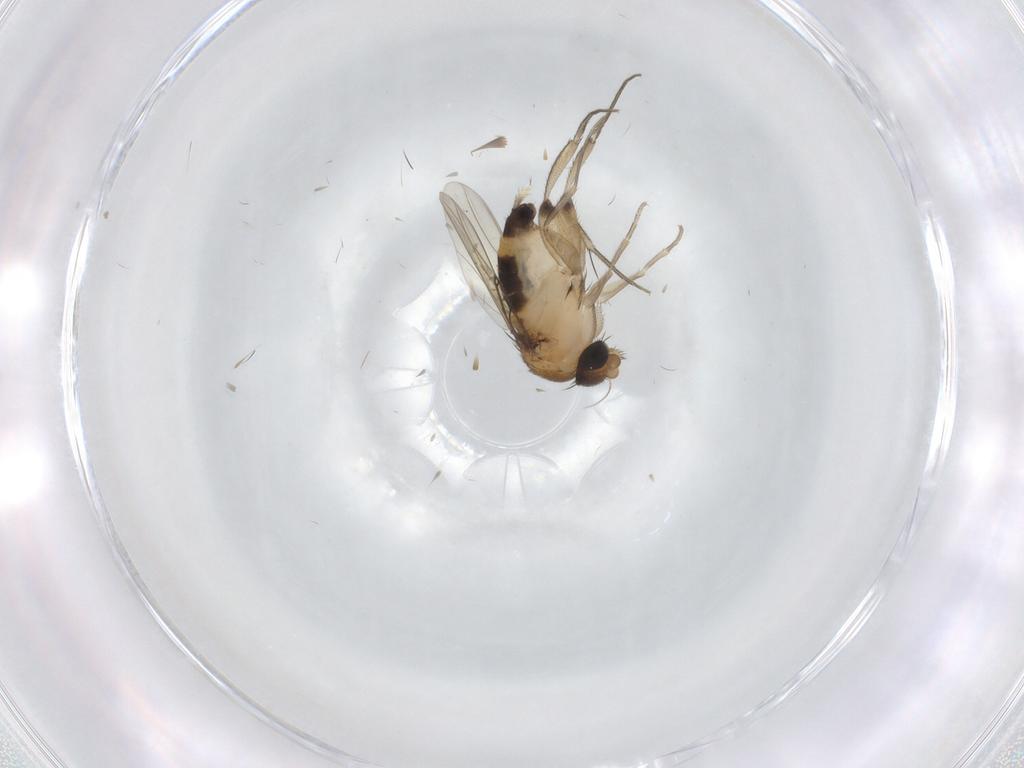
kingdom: Animalia
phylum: Arthropoda
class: Insecta
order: Diptera
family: Phoridae
